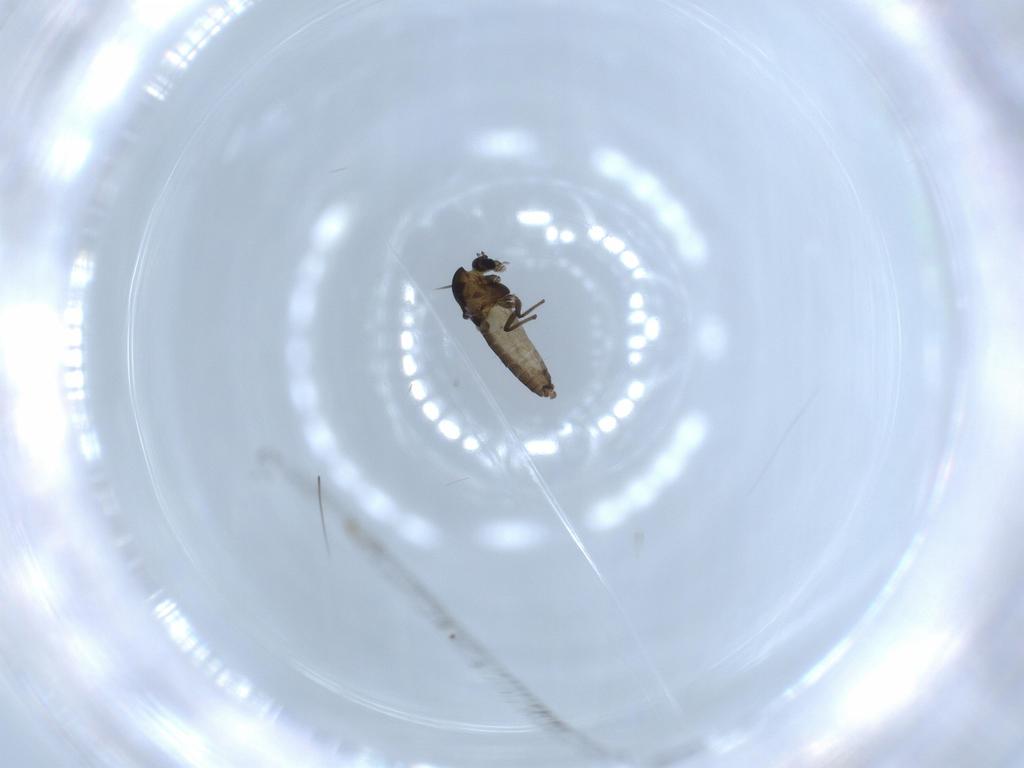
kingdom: Animalia
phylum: Arthropoda
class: Insecta
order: Diptera
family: Chironomidae
